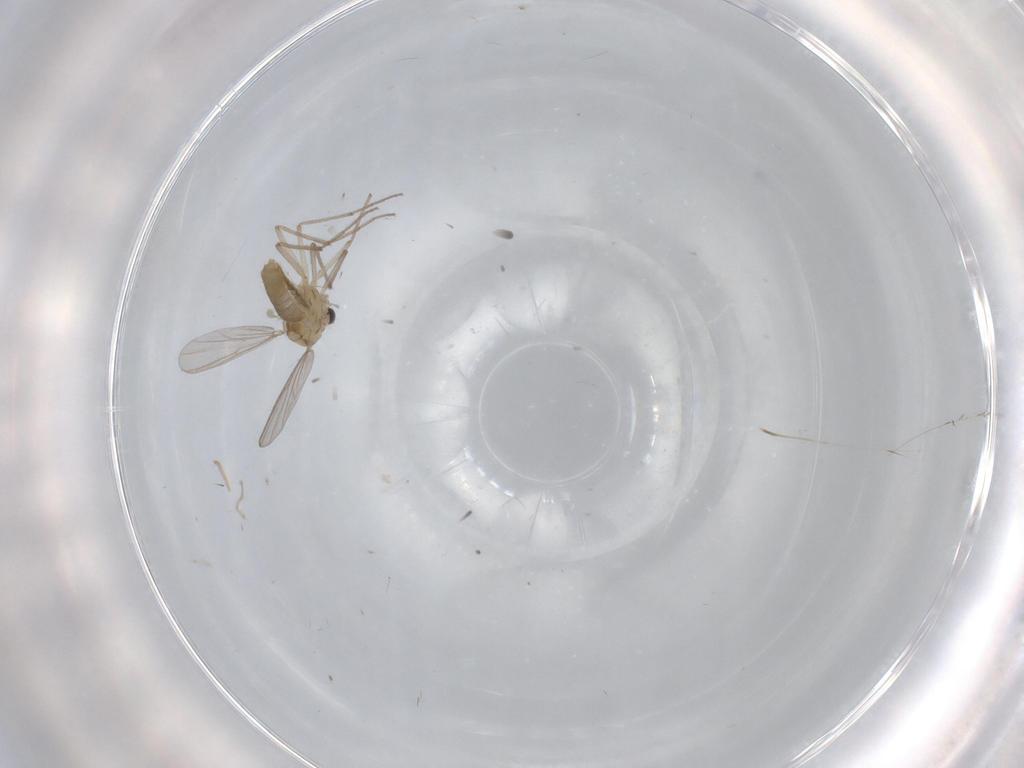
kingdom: Animalia
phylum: Arthropoda
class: Insecta
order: Diptera
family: Chironomidae
